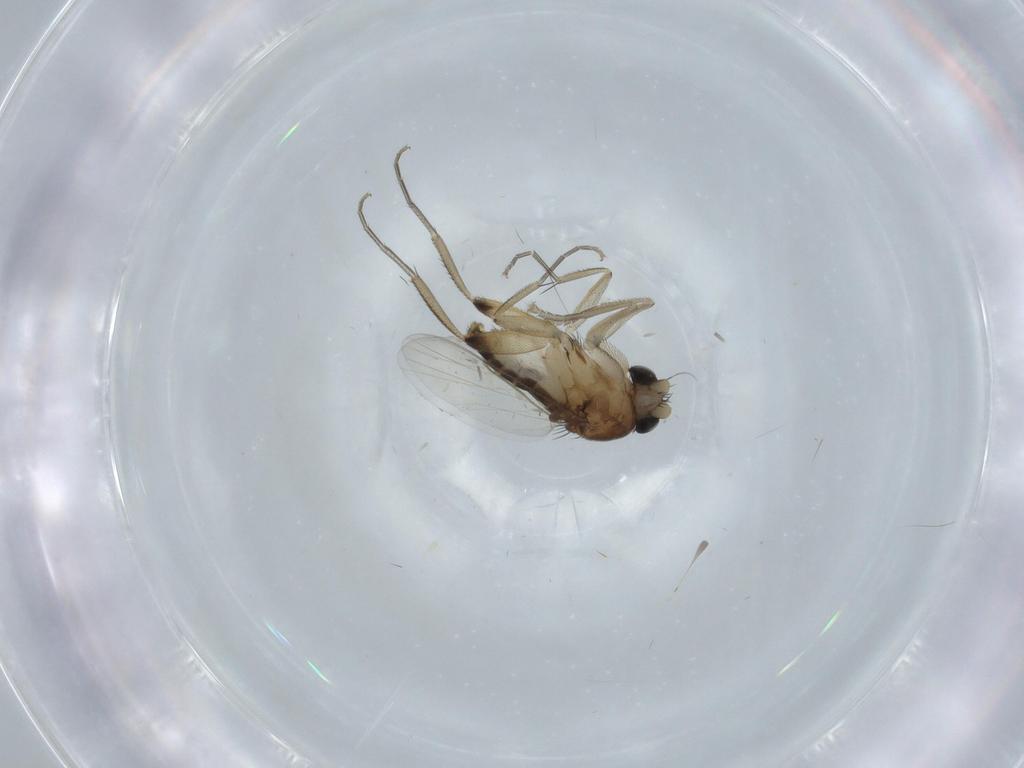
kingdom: Animalia
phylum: Arthropoda
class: Insecta
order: Diptera
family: Phoridae
